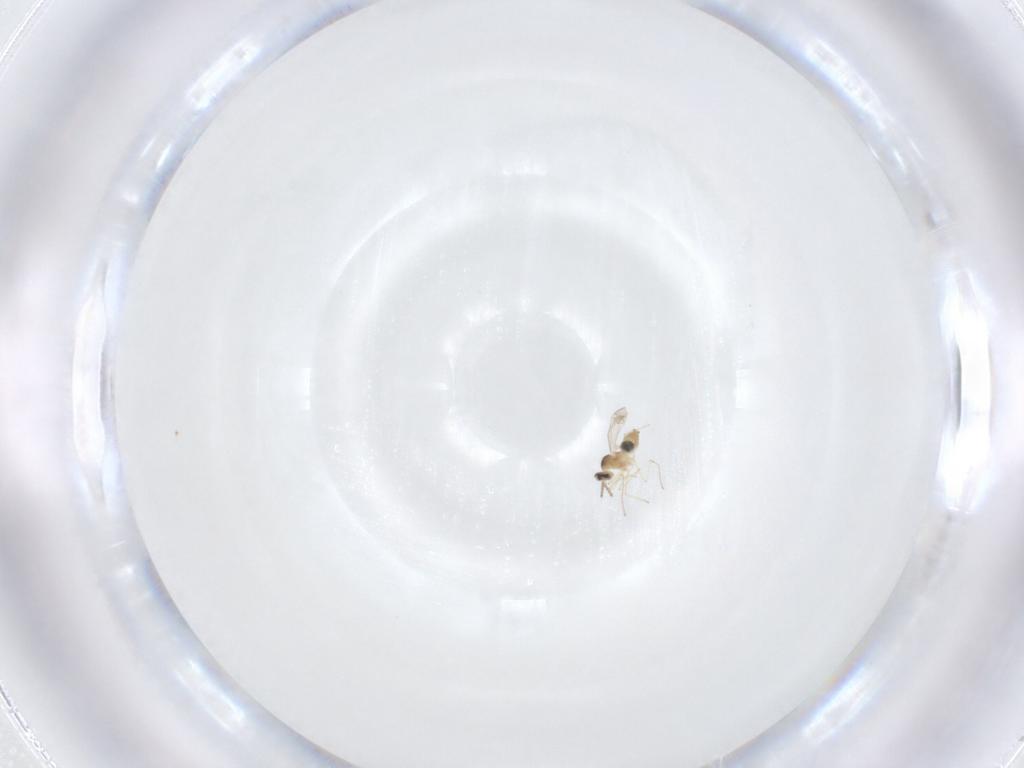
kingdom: Animalia
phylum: Arthropoda
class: Insecta
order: Diptera
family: Cecidomyiidae
